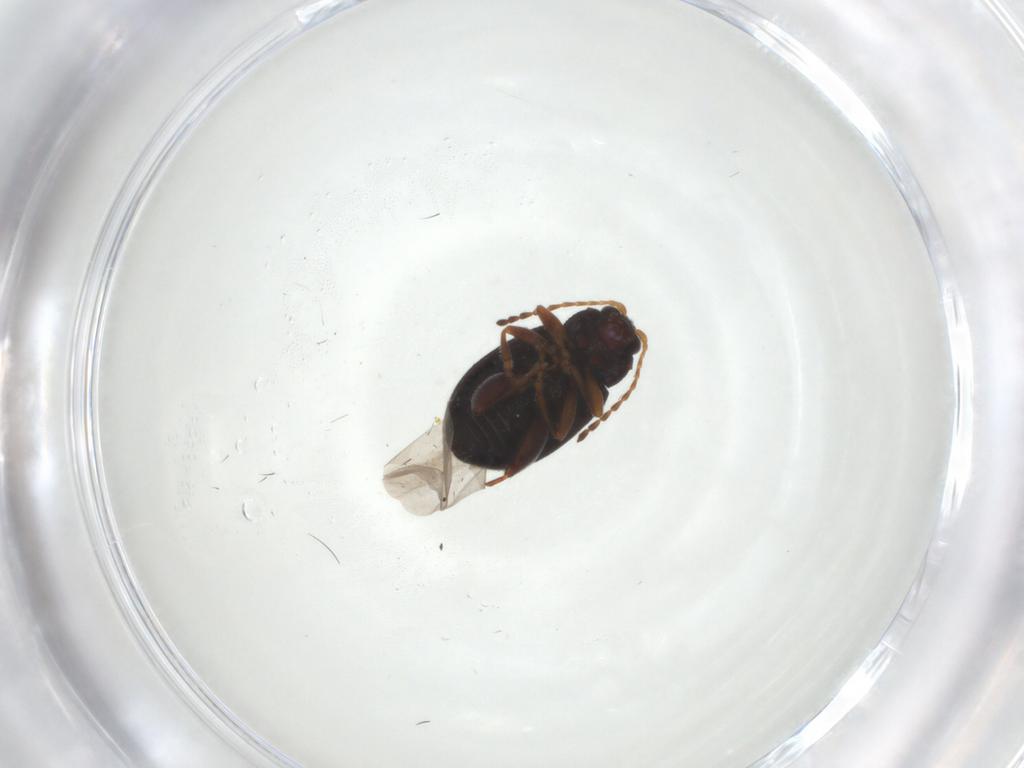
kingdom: Animalia
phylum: Arthropoda
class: Insecta
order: Coleoptera
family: Chrysomelidae
